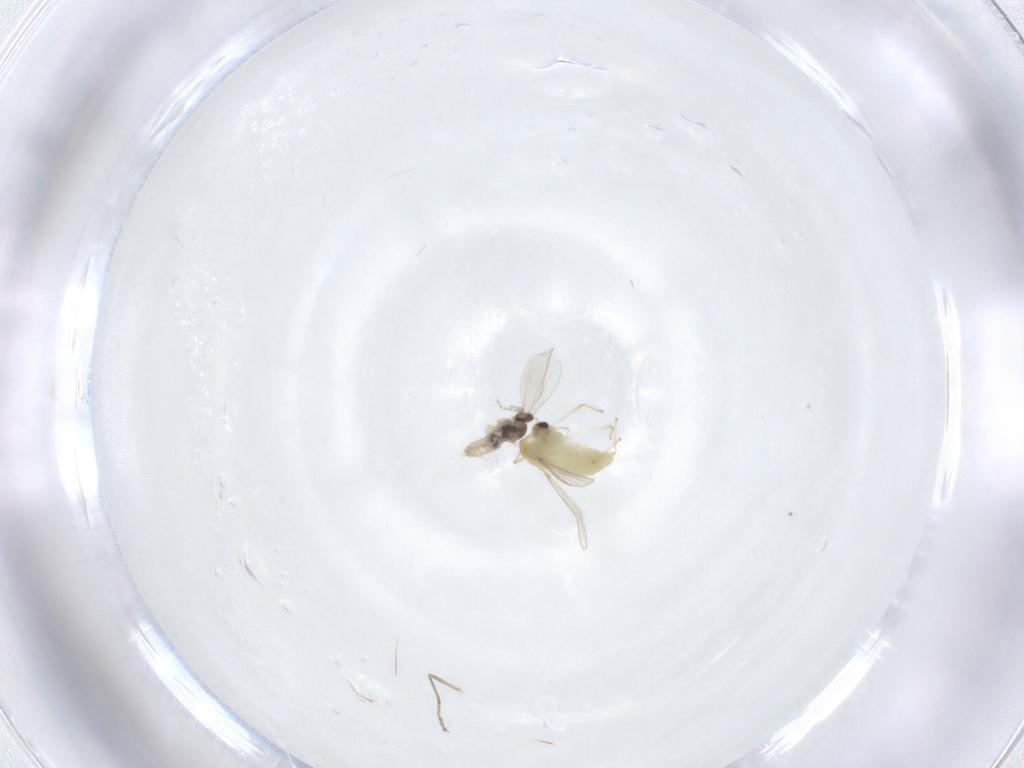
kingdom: Animalia
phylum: Arthropoda
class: Insecta
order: Diptera
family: Chironomidae
